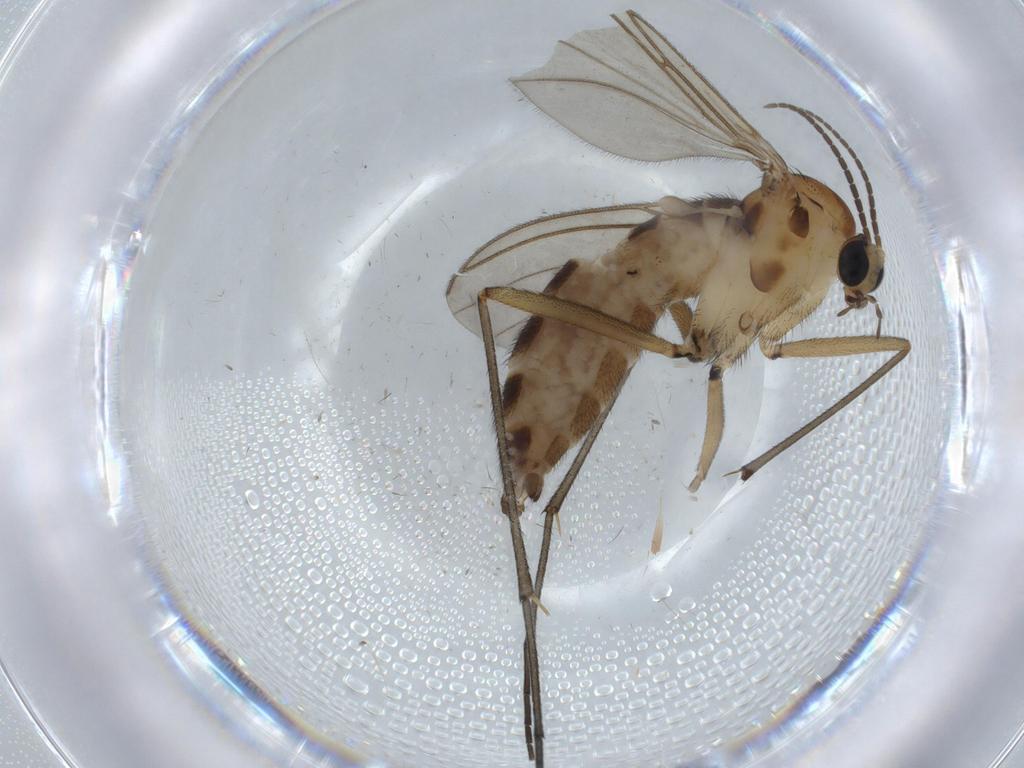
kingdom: Animalia
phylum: Arthropoda
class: Insecta
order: Diptera
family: Sciaridae
